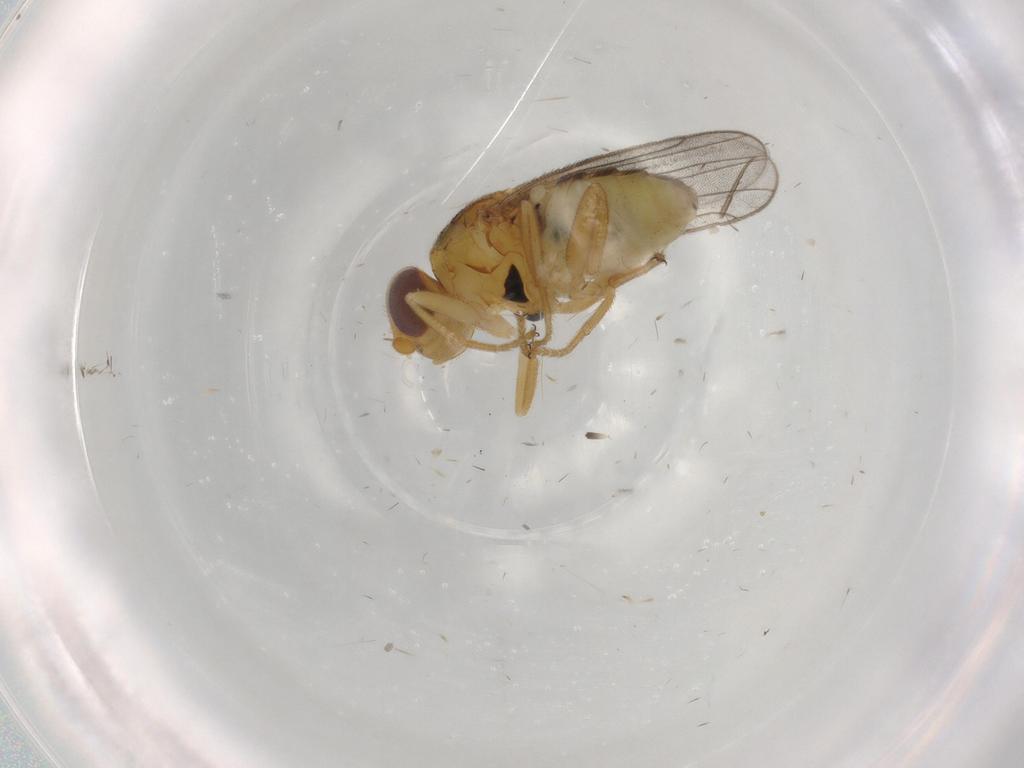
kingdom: Animalia
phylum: Arthropoda
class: Insecta
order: Diptera
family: Chloropidae
